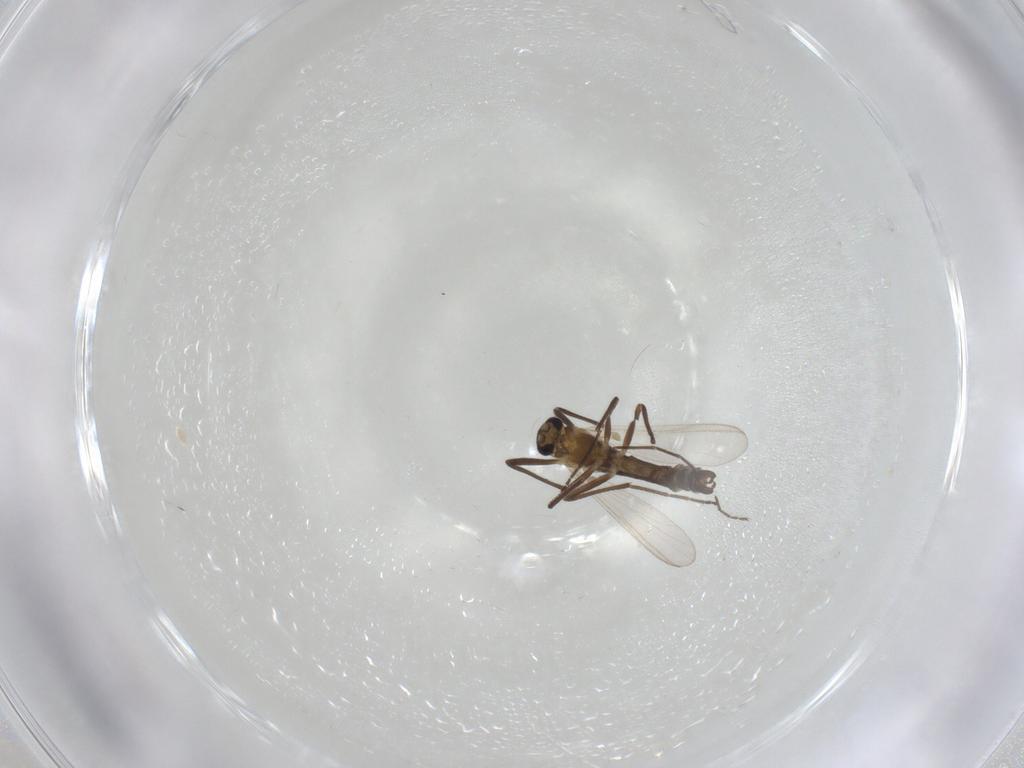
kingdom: Animalia
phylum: Arthropoda
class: Insecta
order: Diptera
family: Chironomidae
